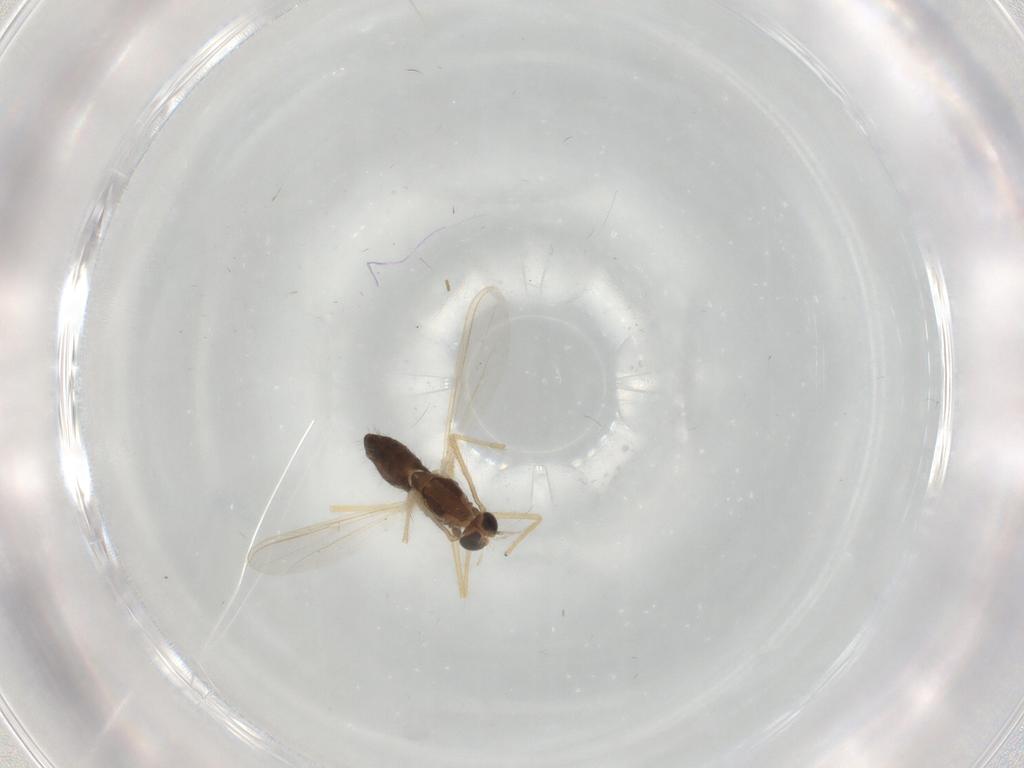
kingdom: Animalia
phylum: Arthropoda
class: Insecta
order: Diptera
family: Chironomidae
